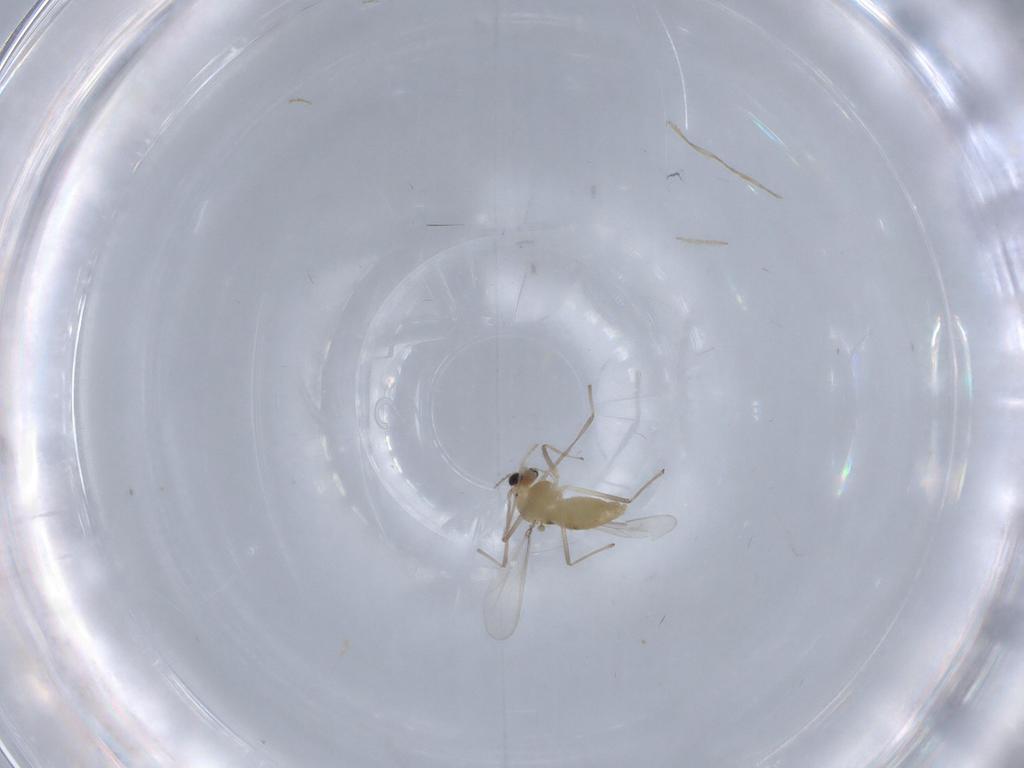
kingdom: Animalia
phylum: Arthropoda
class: Insecta
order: Diptera
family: Chironomidae
